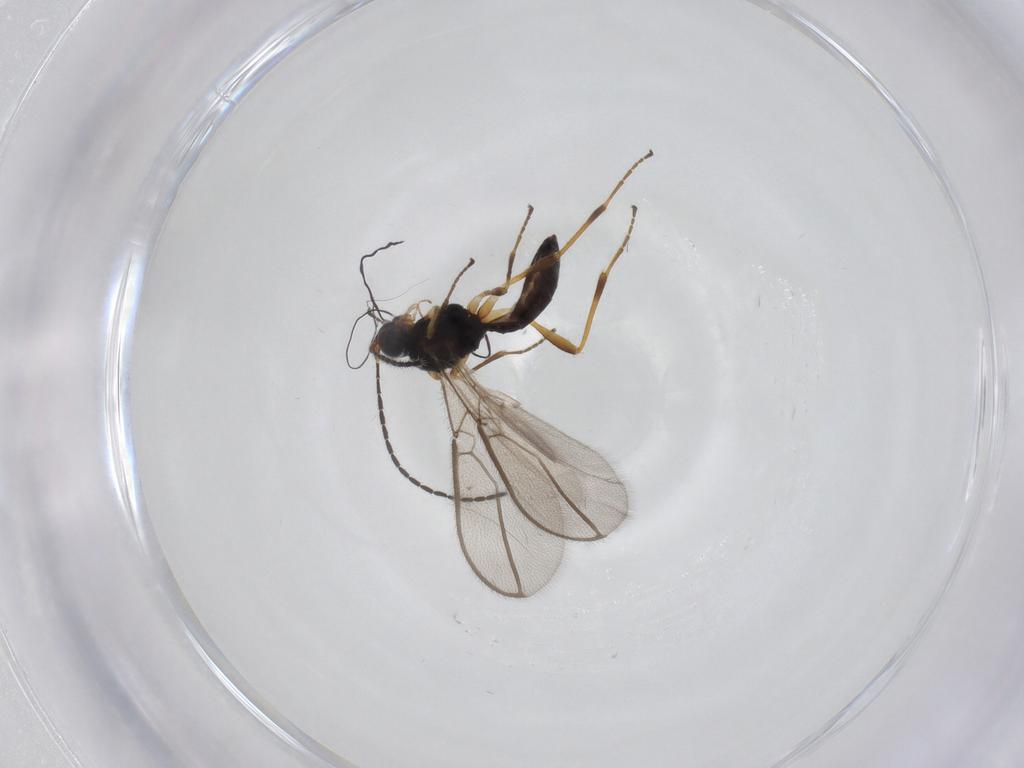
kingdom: Animalia
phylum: Arthropoda
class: Insecta
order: Hymenoptera
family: Braconidae
